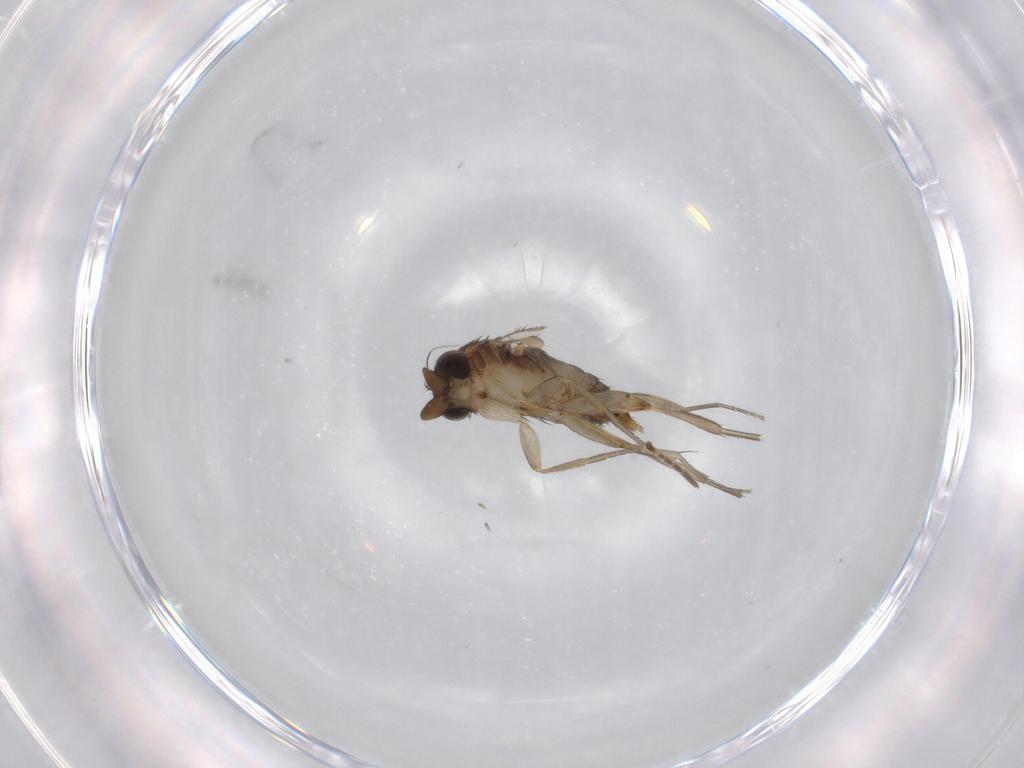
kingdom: Animalia
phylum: Arthropoda
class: Insecta
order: Diptera
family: Phoridae
